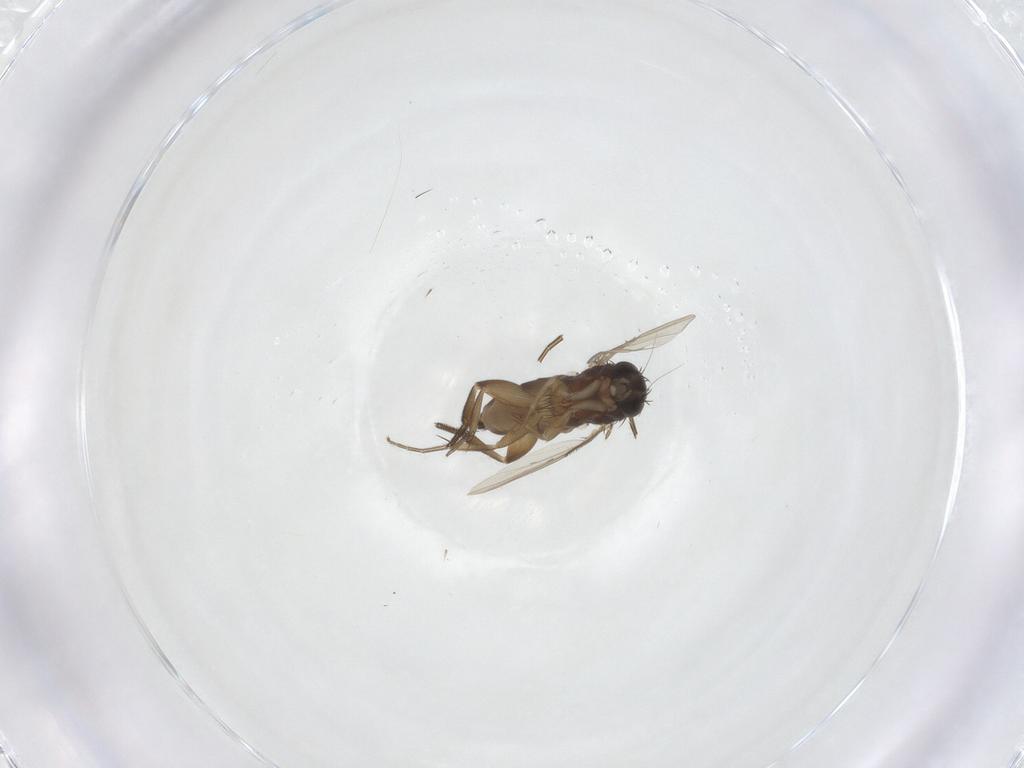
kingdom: Animalia
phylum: Arthropoda
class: Insecta
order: Diptera
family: Phoridae
